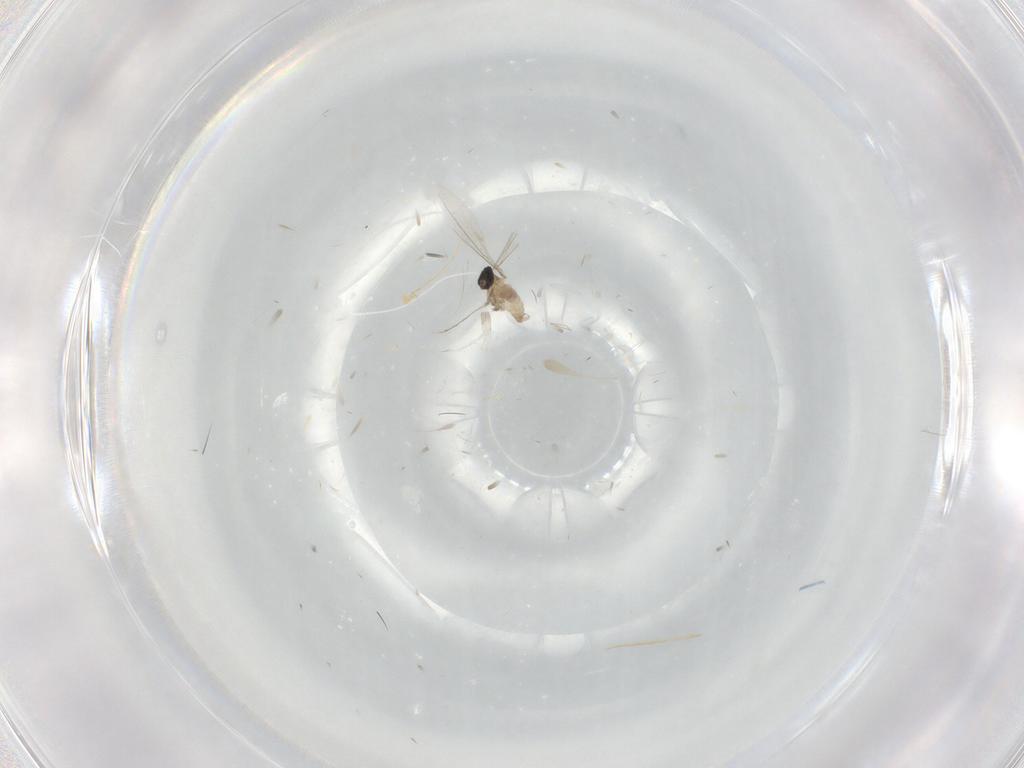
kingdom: Animalia
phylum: Arthropoda
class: Insecta
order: Diptera
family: Cecidomyiidae
